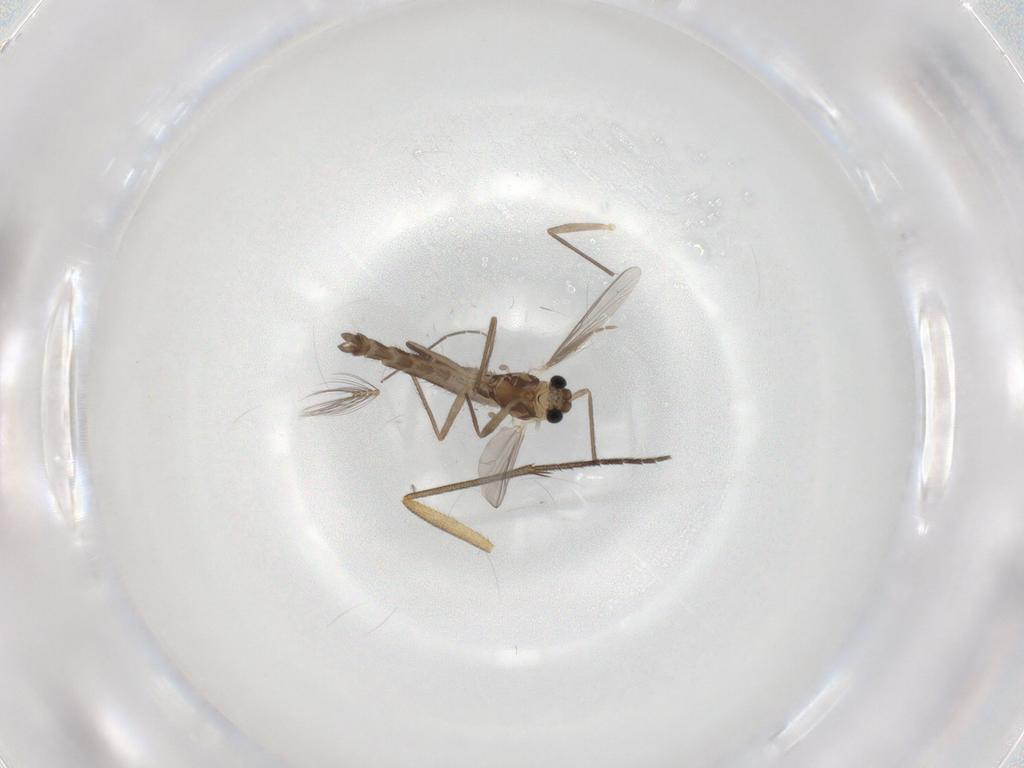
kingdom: Animalia
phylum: Arthropoda
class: Insecta
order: Diptera
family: Chironomidae
